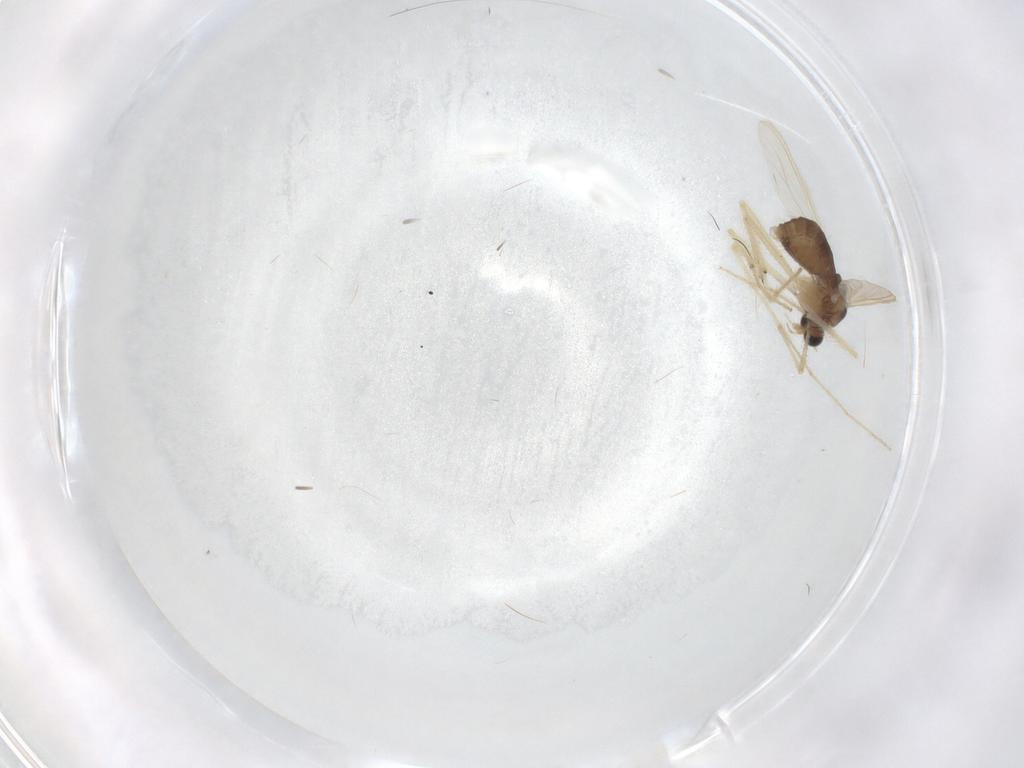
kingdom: Animalia
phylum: Arthropoda
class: Insecta
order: Diptera
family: Chironomidae
